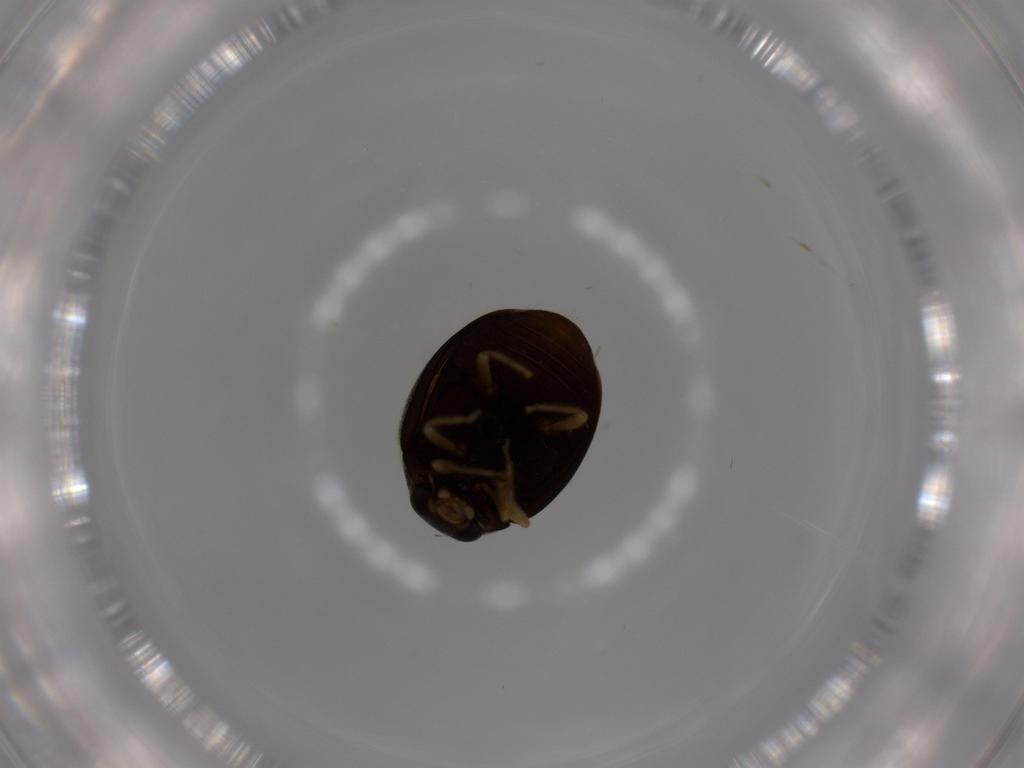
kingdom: Animalia
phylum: Arthropoda
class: Insecta
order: Coleoptera
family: Coccinellidae
